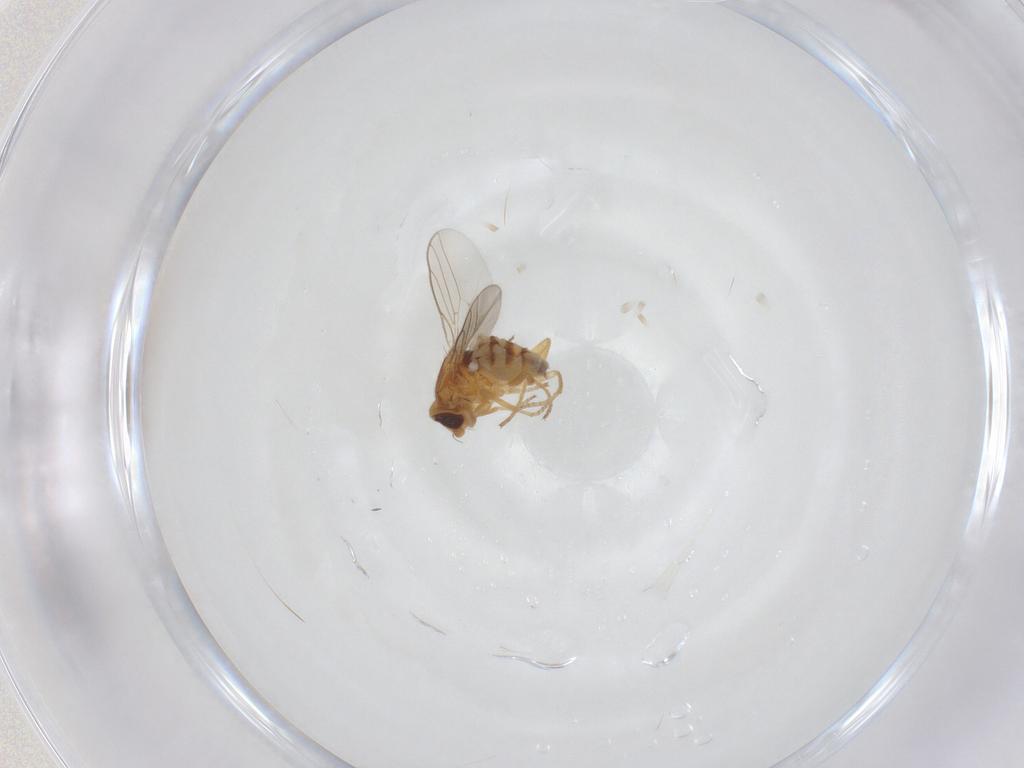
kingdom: Animalia
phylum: Arthropoda
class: Insecta
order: Diptera
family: Chloropidae
